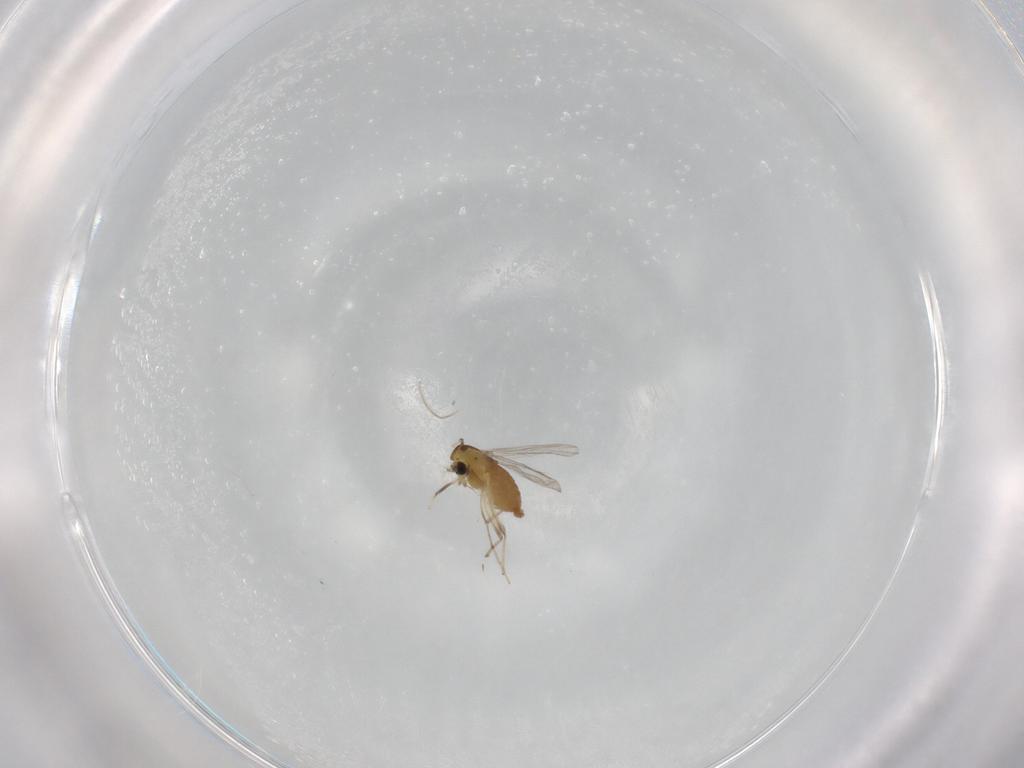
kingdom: Animalia
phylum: Arthropoda
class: Insecta
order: Diptera
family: Chironomidae
